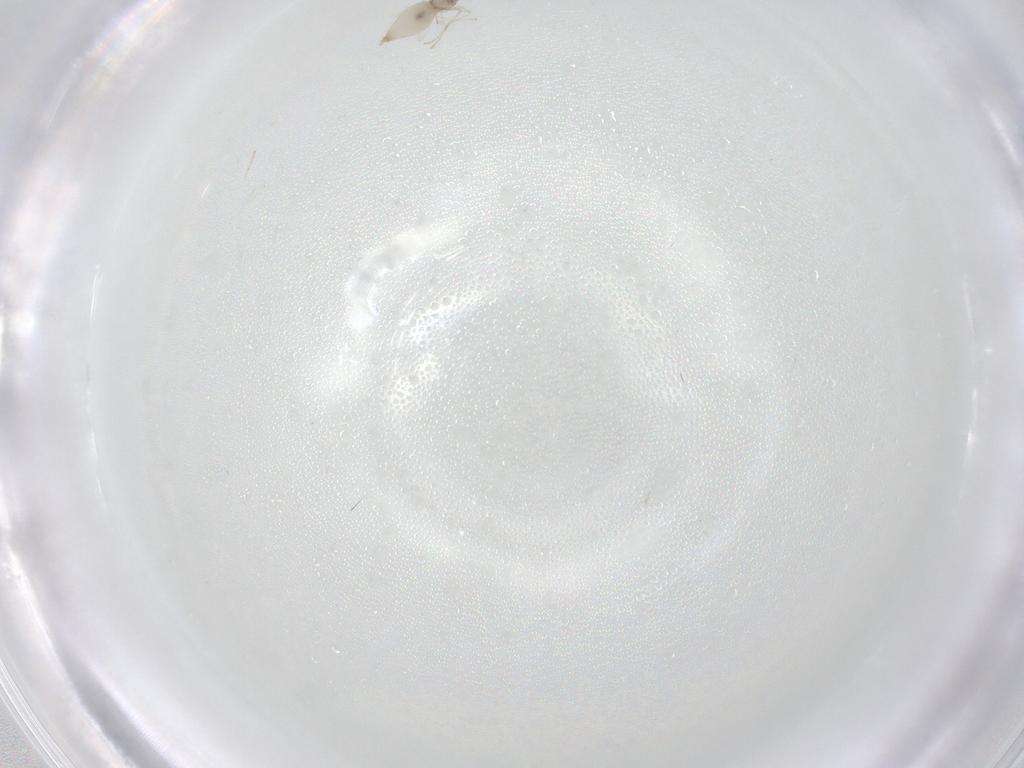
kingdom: Animalia
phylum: Arthropoda
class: Insecta
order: Diptera
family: Cecidomyiidae
